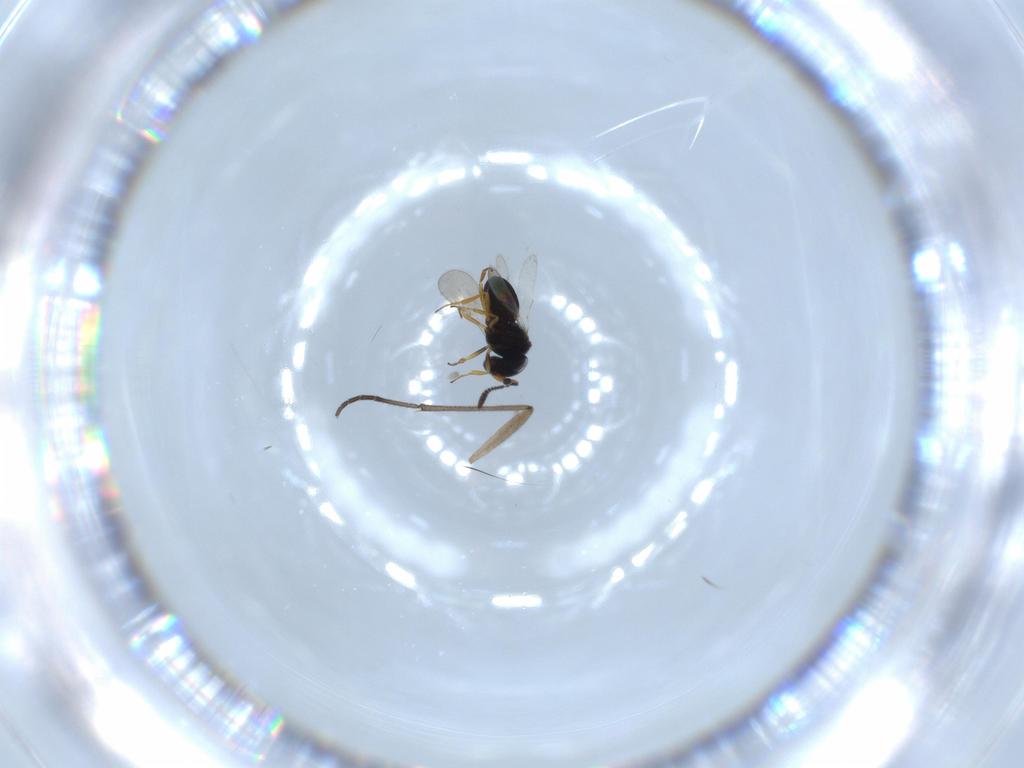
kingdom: Animalia
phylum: Arthropoda
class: Insecta
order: Hymenoptera
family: Scelionidae
